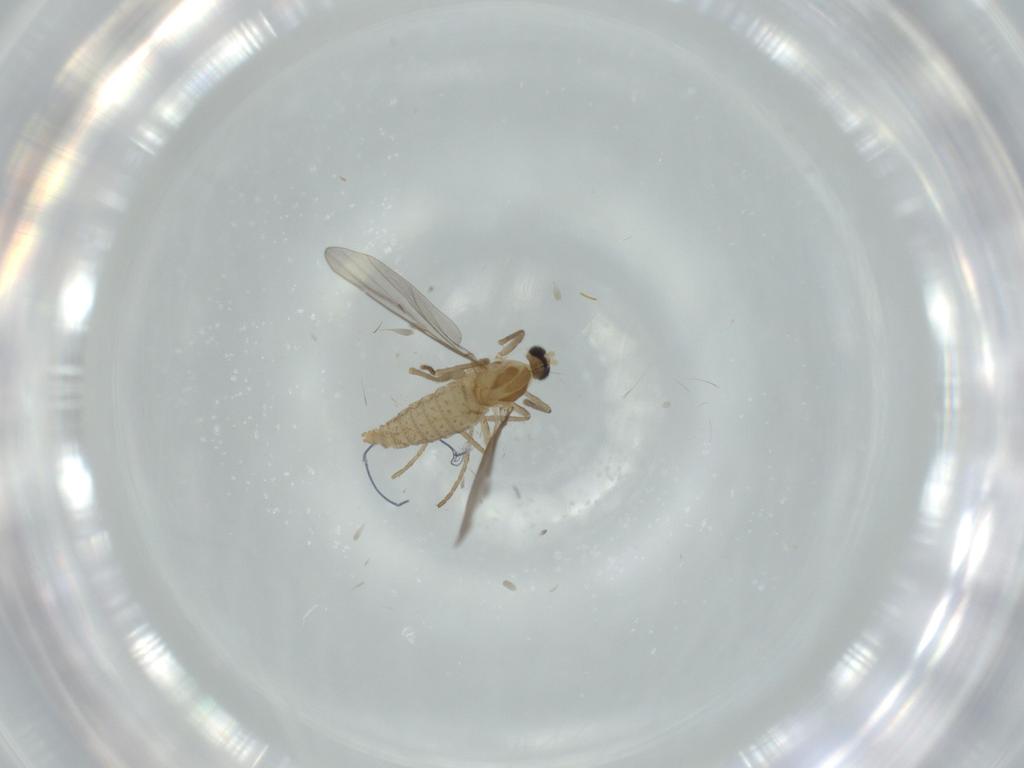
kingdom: Animalia
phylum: Arthropoda
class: Insecta
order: Diptera
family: Cecidomyiidae
